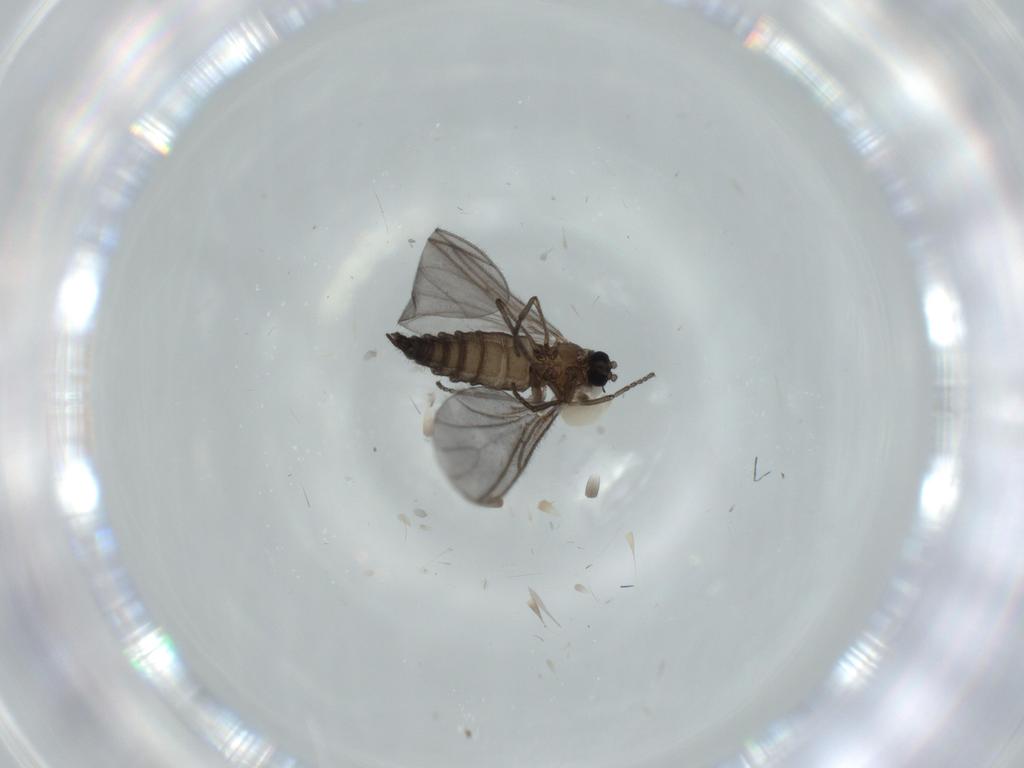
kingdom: Animalia
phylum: Arthropoda
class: Insecta
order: Diptera
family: Sciaridae
